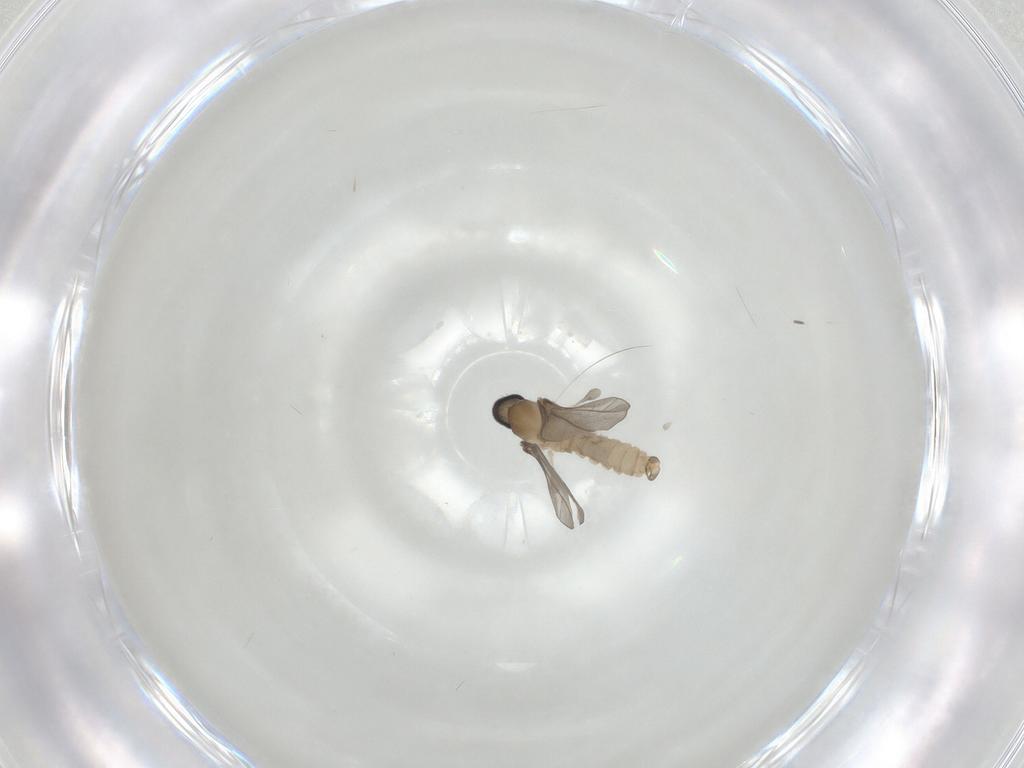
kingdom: Animalia
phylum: Arthropoda
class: Insecta
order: Diptera
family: Cecidomyiidae
